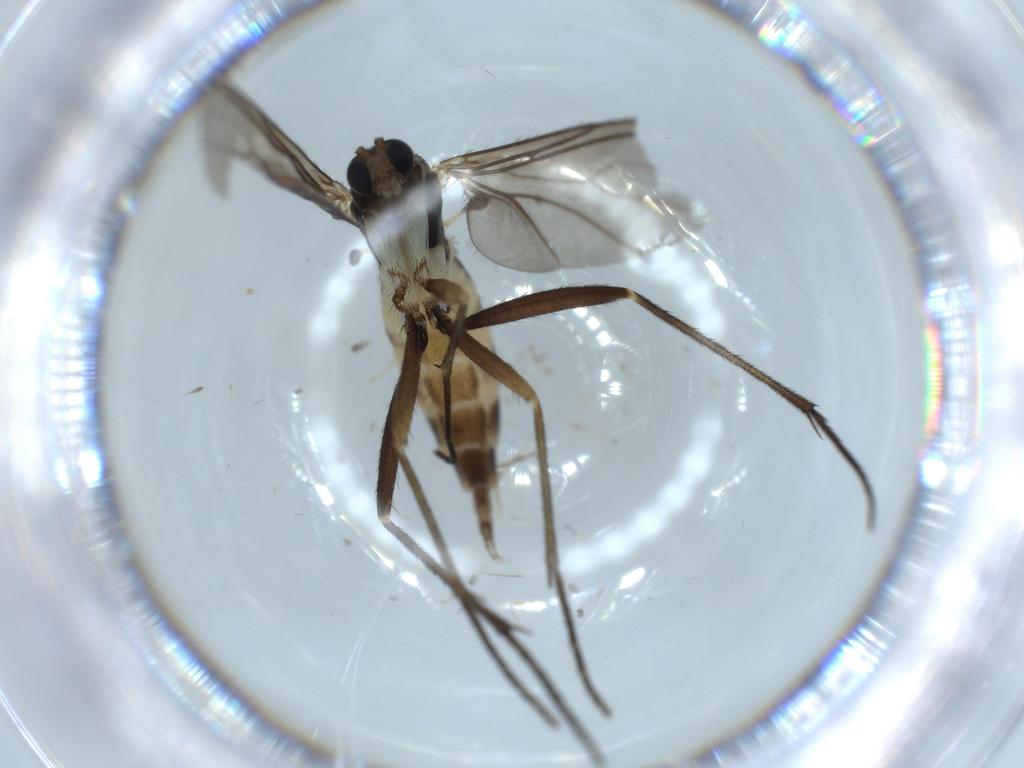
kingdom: Animalia
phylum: Arthropoda
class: Insecta
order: Diptera
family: Sciaridae
